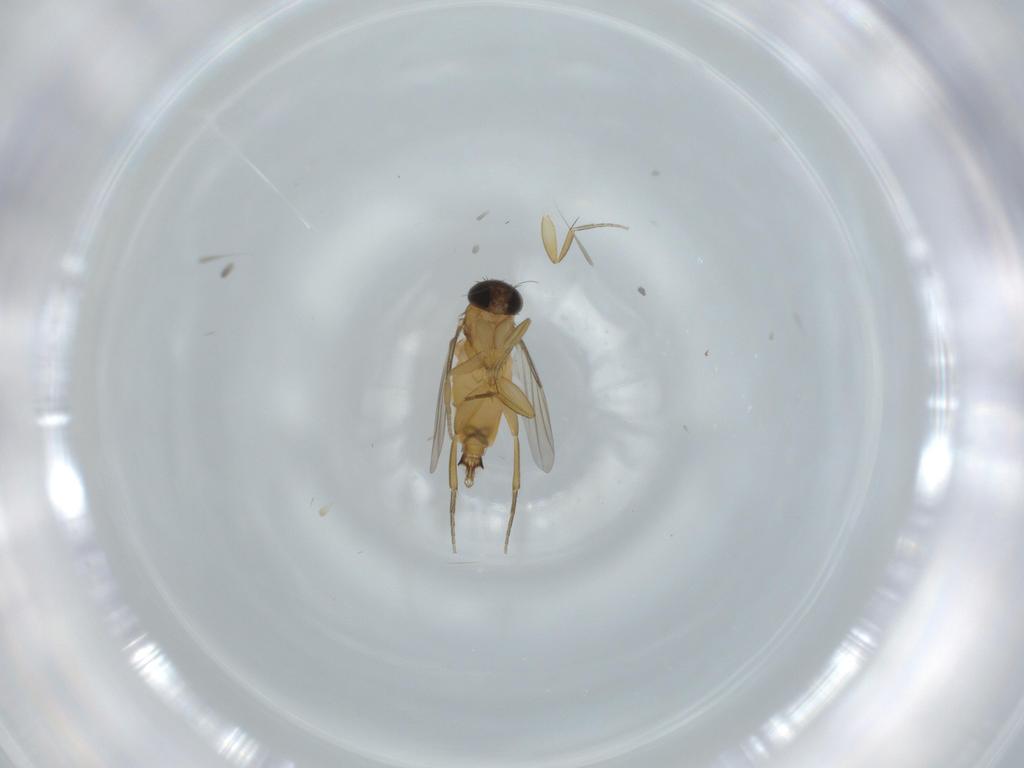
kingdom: Animalia
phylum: Arthropoda
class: Insecta
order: Diptera
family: Phoridae
